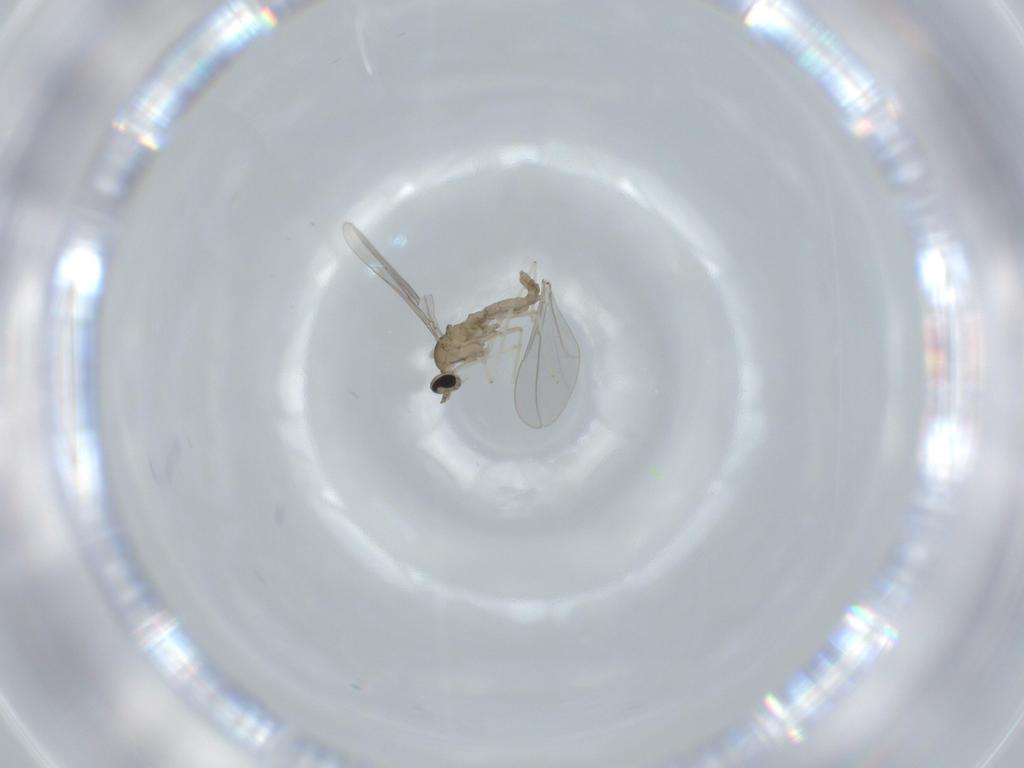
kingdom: Animalia
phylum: Arthropoda
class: Insecta
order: Diptera
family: Cecidomyiidae
